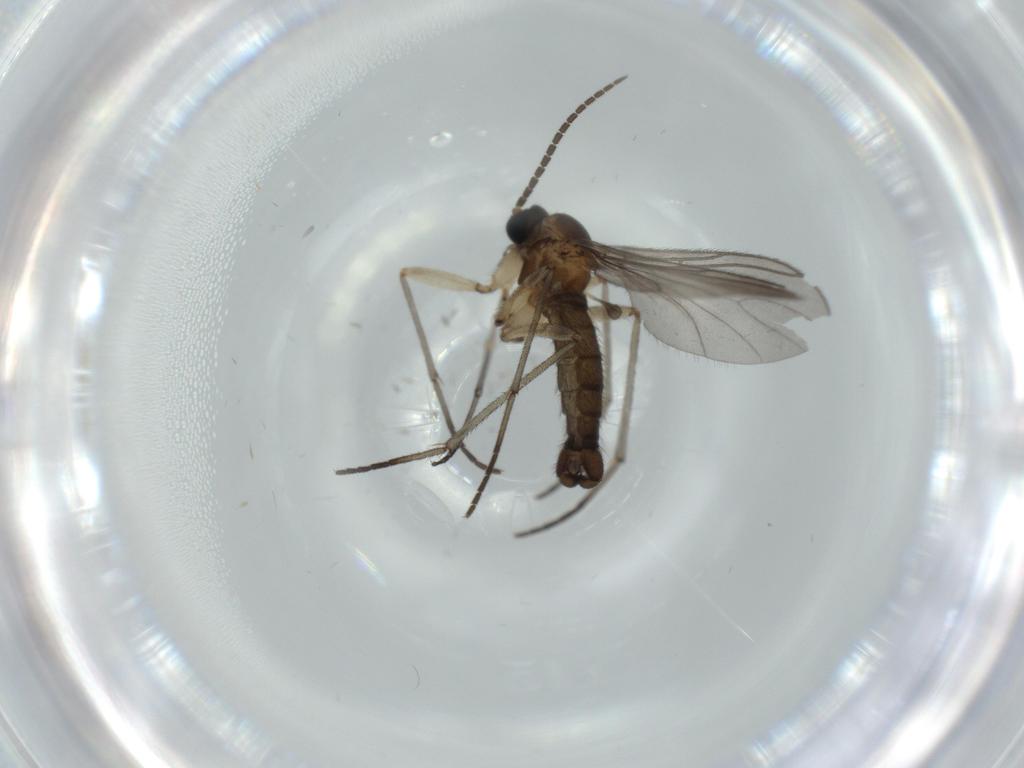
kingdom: Animalia
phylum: Arthropoda
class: Insecta
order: Diptera
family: Sciaridae
